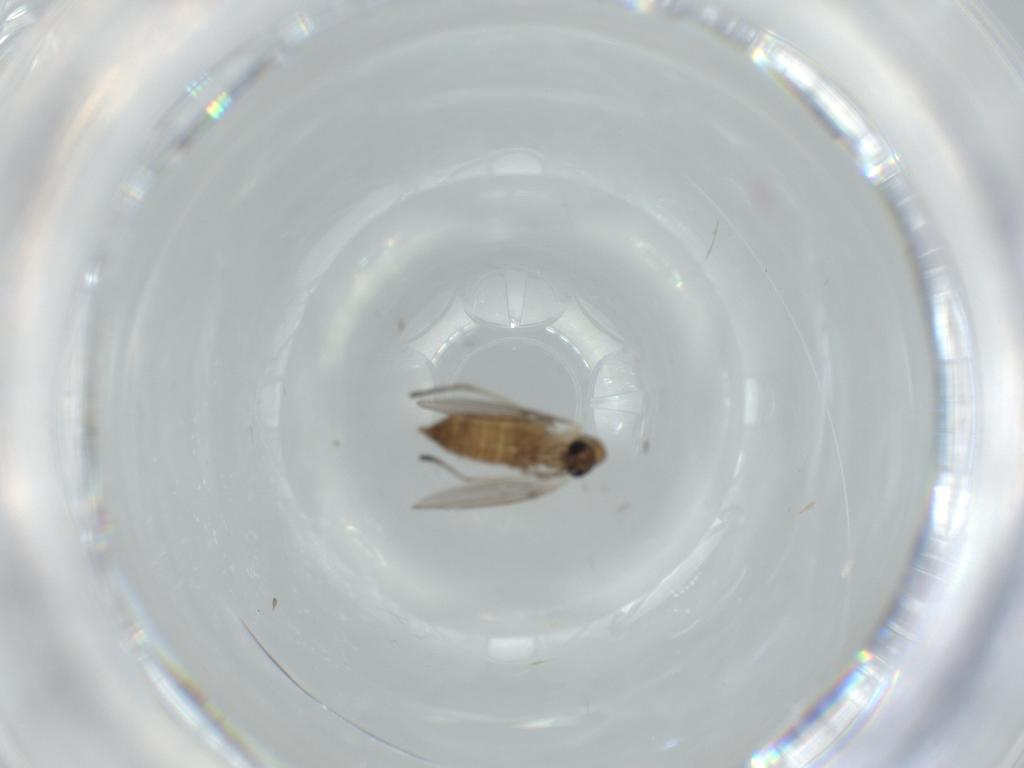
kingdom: Animalia
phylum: Arthropoda
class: Insecta
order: Diptera
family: Psychodidae
